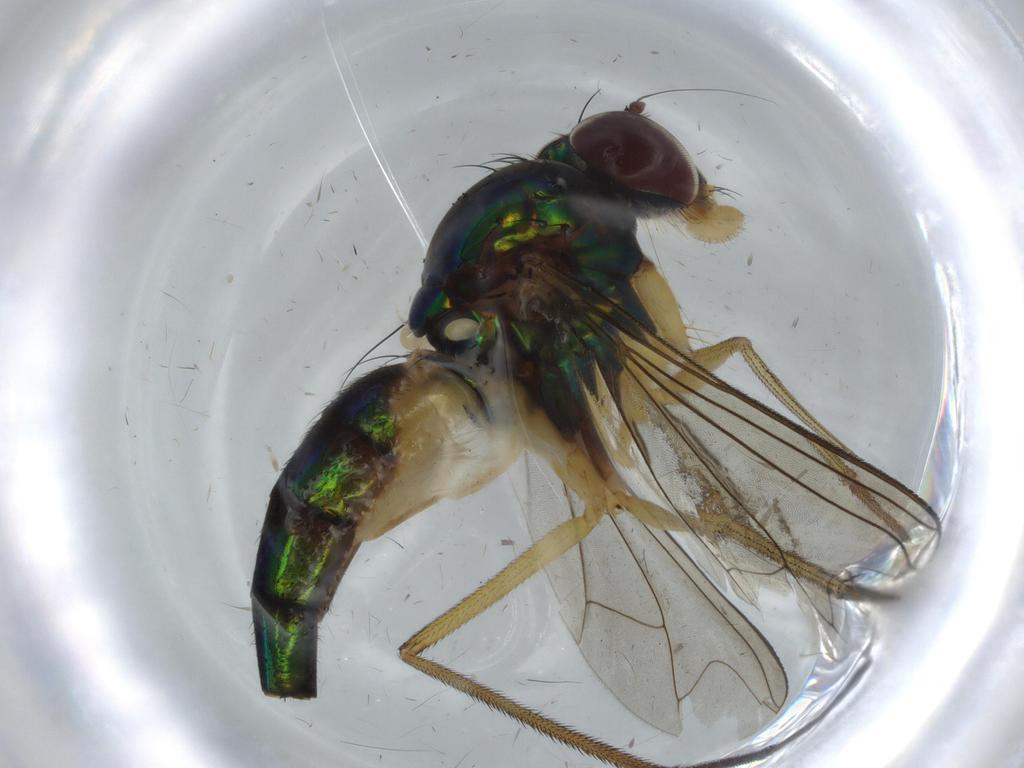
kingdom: Animalia
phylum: Arthropoda
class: Insecta
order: Diptera
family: Dolichopodidae
